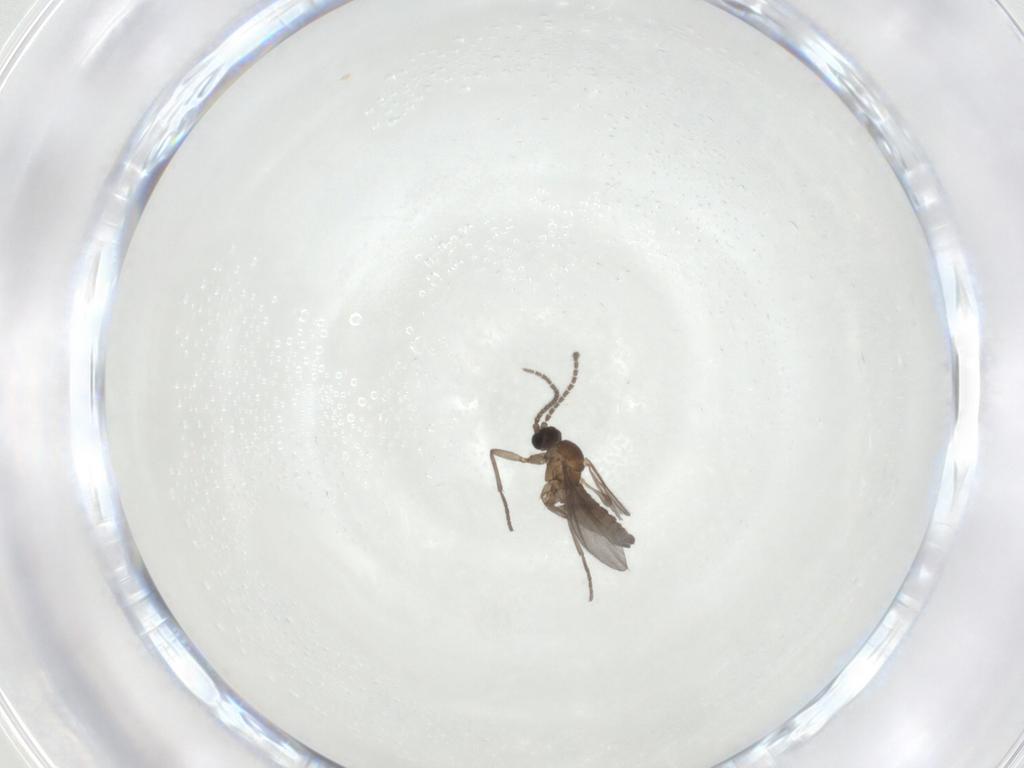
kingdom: Animalia
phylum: Arthropoda
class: Insecta
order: Diptera
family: Sciaridae
